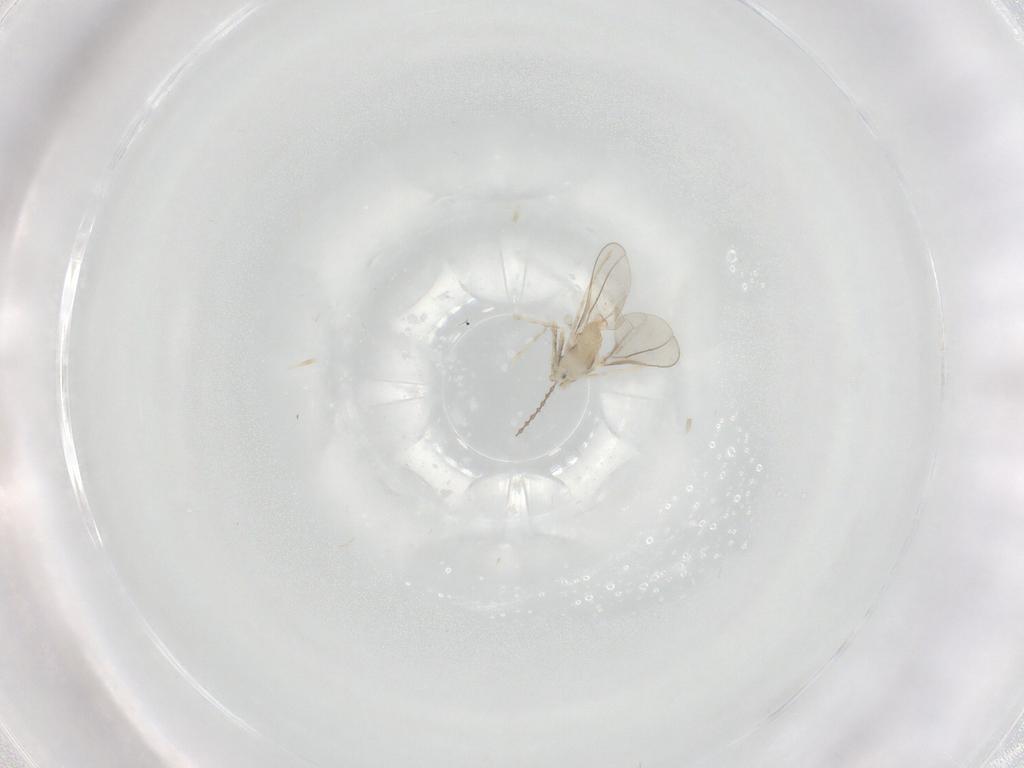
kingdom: Animalia
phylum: Arthropoda
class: Insecta
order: Diptera
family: Cecidomyiidae
